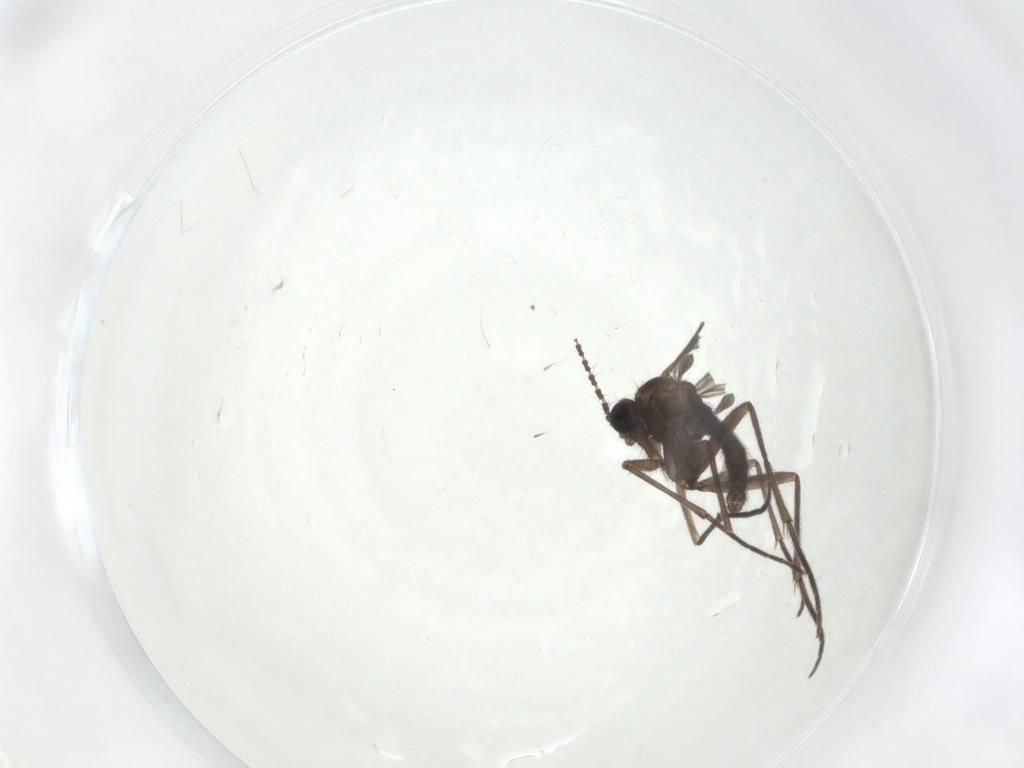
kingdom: Animalia
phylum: Arthropoda
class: Insecta
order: Diptera
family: Sciaridae
